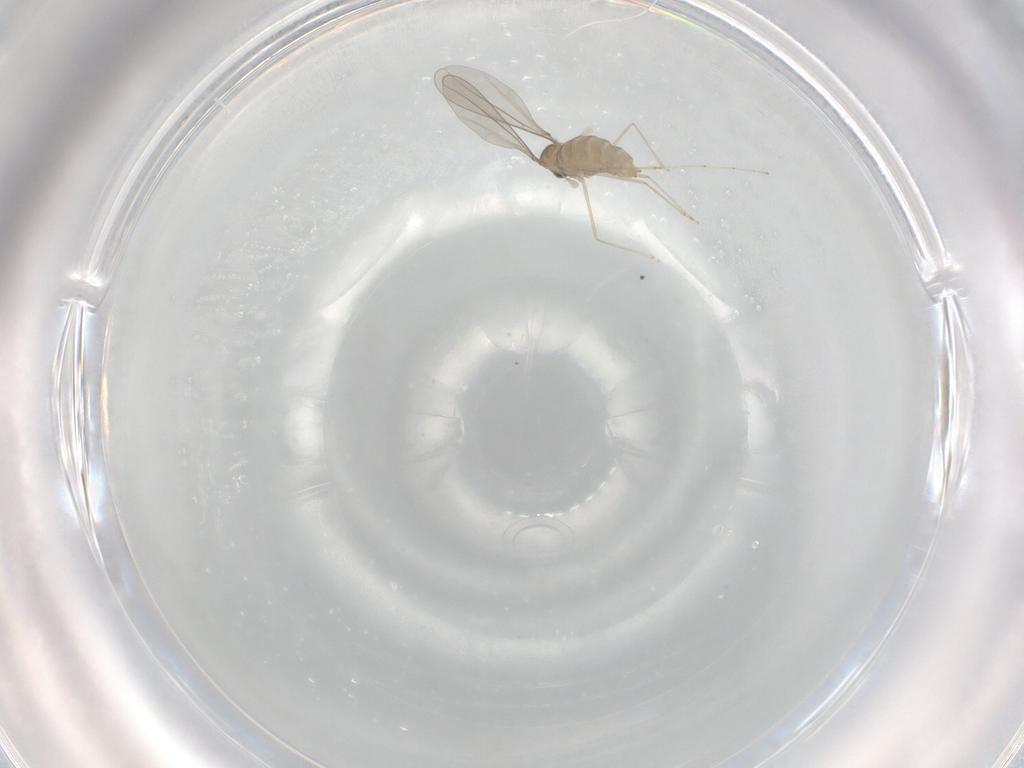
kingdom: Animalia
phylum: Arthropoda
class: Insecta
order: Diptera
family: Cecidomyiidae
